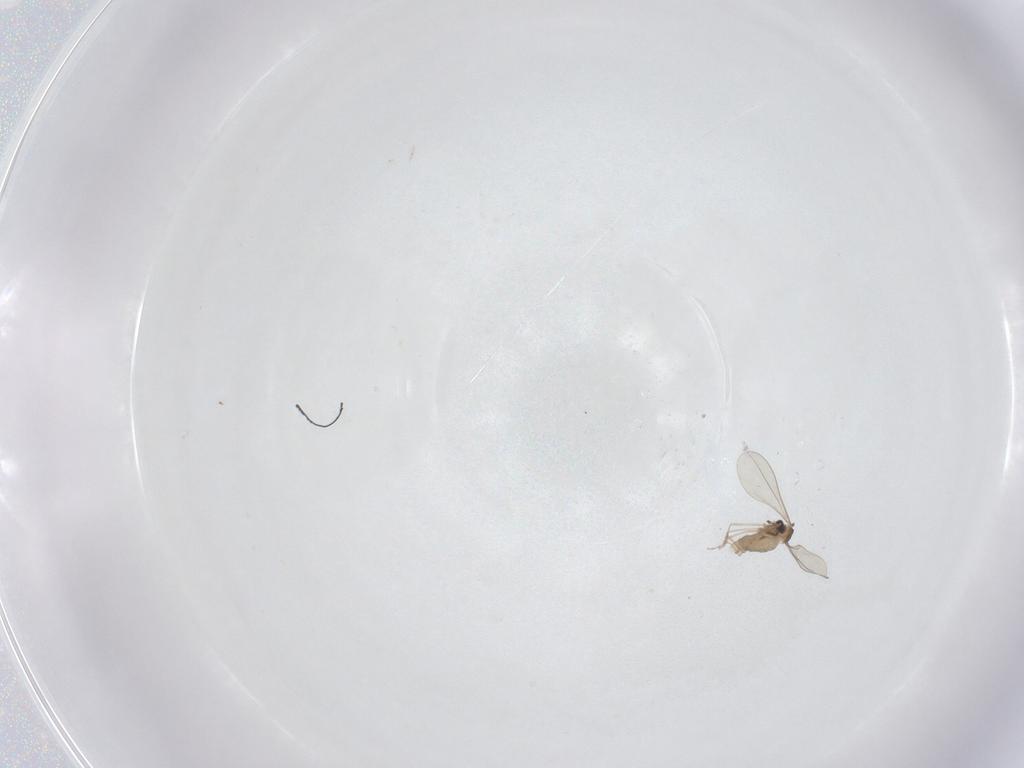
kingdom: Animalia
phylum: Arthropoda
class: Insecta
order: Diptera
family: Cecidomyiidae
